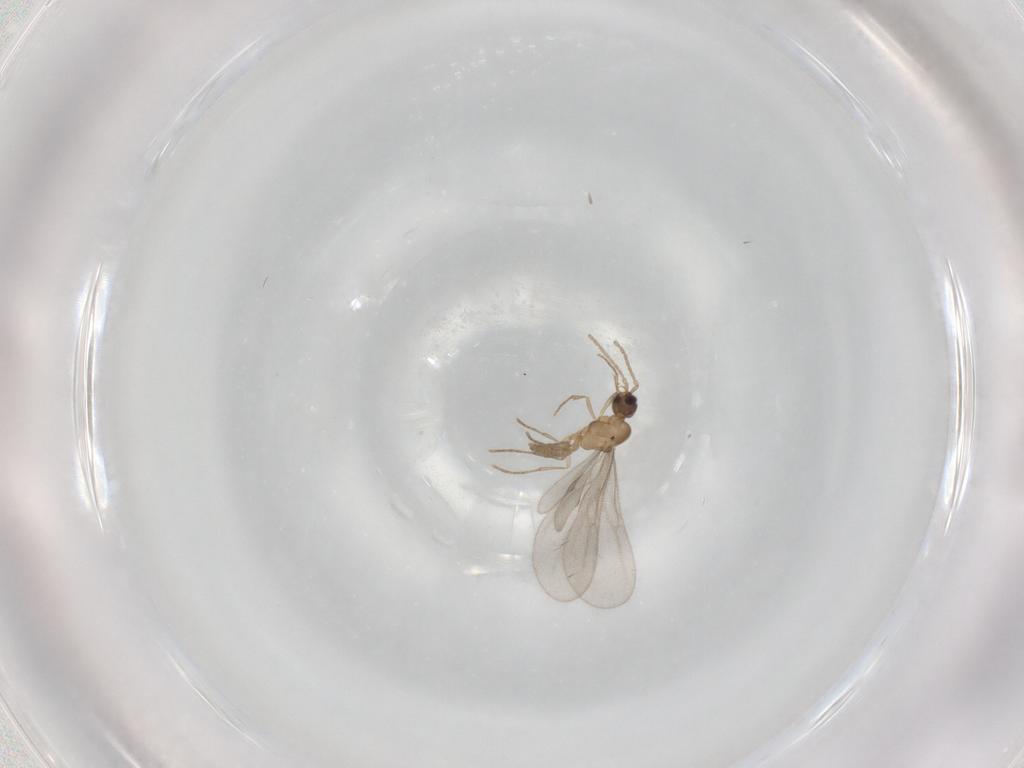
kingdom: Animalia
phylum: Arthropoda
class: Insecta
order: Hymenoptera
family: Formicidae
